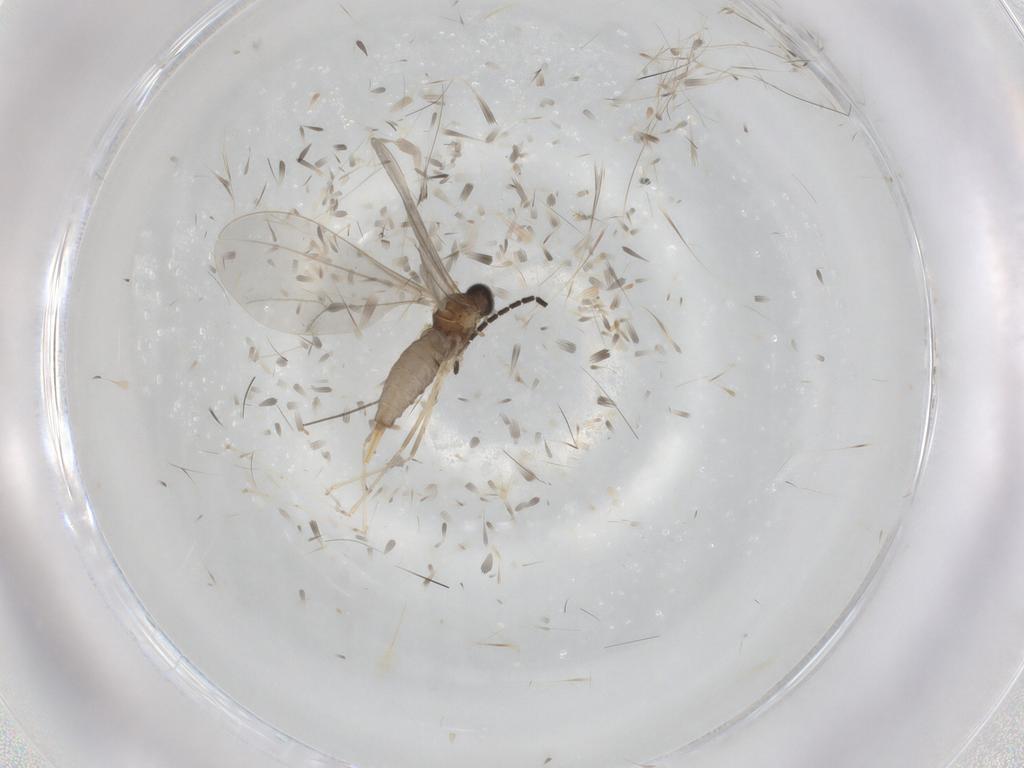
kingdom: Animalia
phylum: Arthropoda
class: Insecta
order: Diptera
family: Cecidomyiidae
